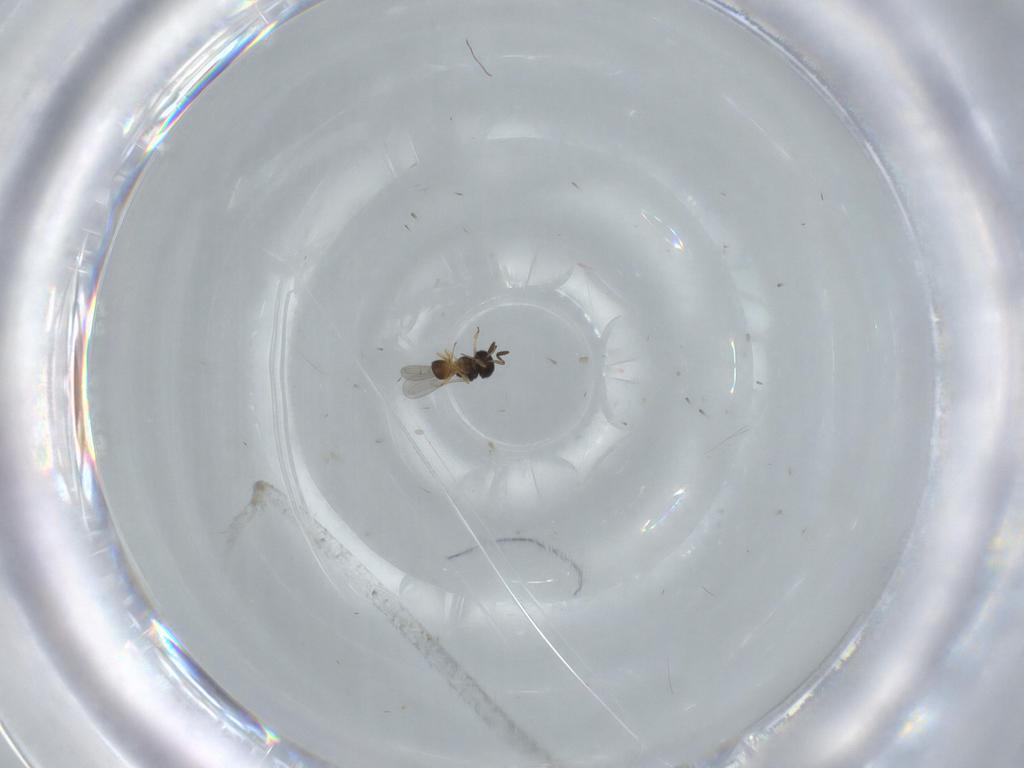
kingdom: Animalia
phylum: Arthropoda
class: Insecta
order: Hymenoptera
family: Scelionidae
